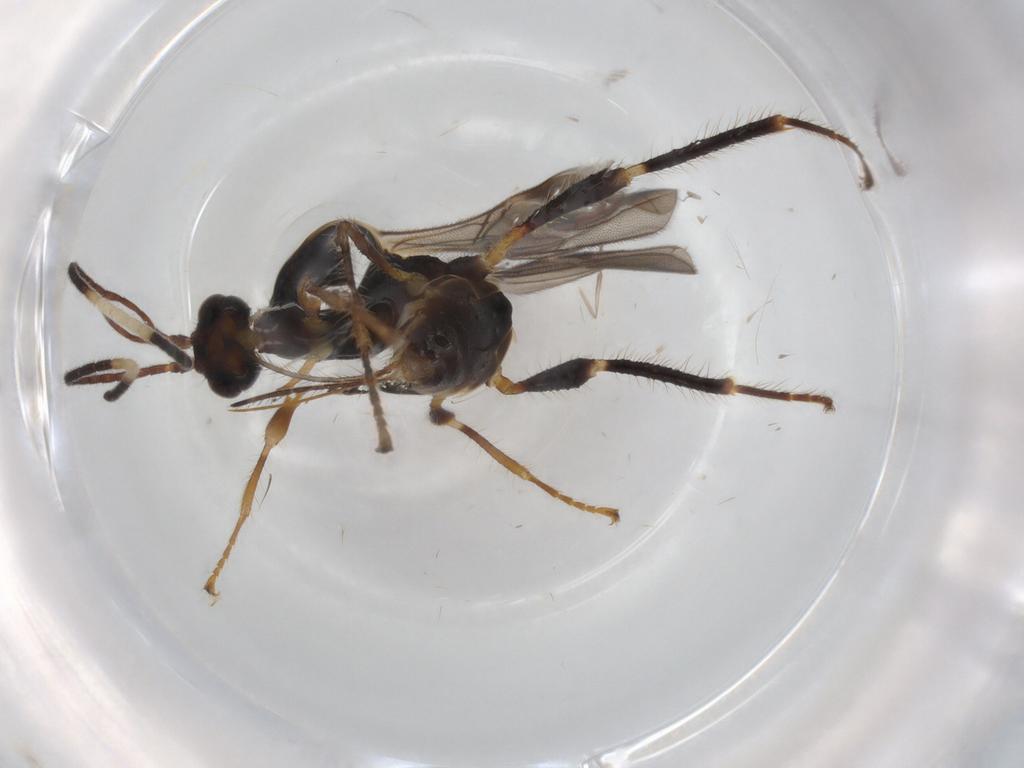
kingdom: Animalia
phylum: Arthropoda
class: Insecta
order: Hymenoptera
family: Braconidae
